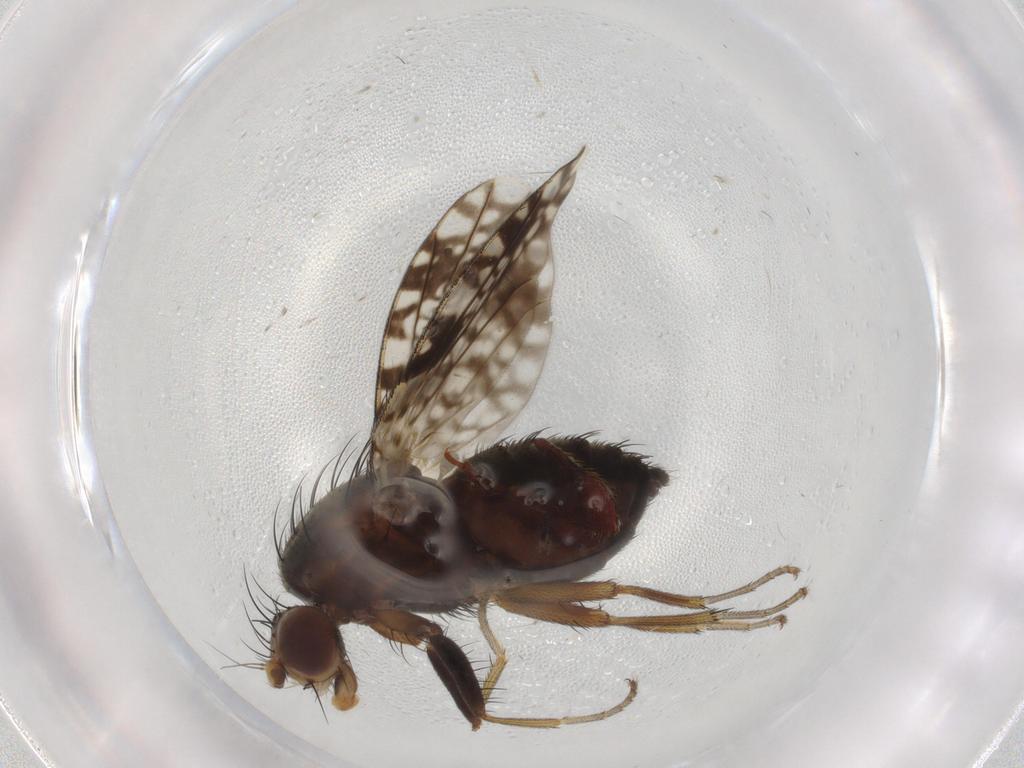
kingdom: Animalia
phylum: Arthropoda
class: Insecta
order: Diptera
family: Tephritidae
